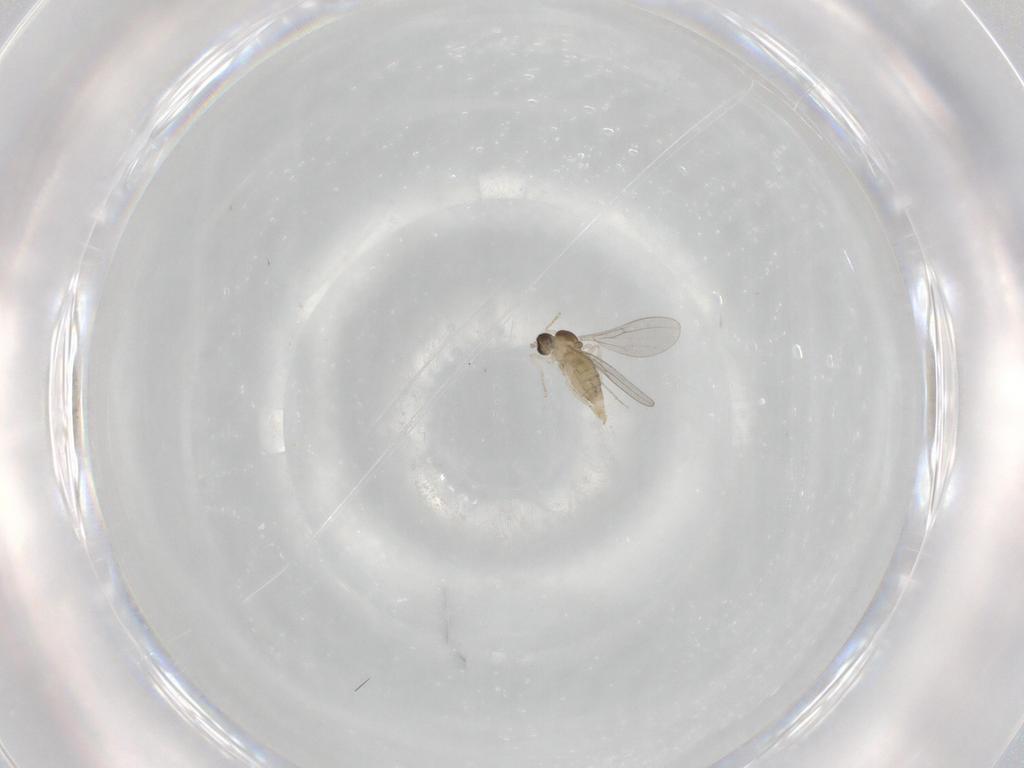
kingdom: Animalia
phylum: Arthropoda
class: Insecta
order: Diptera
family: Cecidomyiidae
